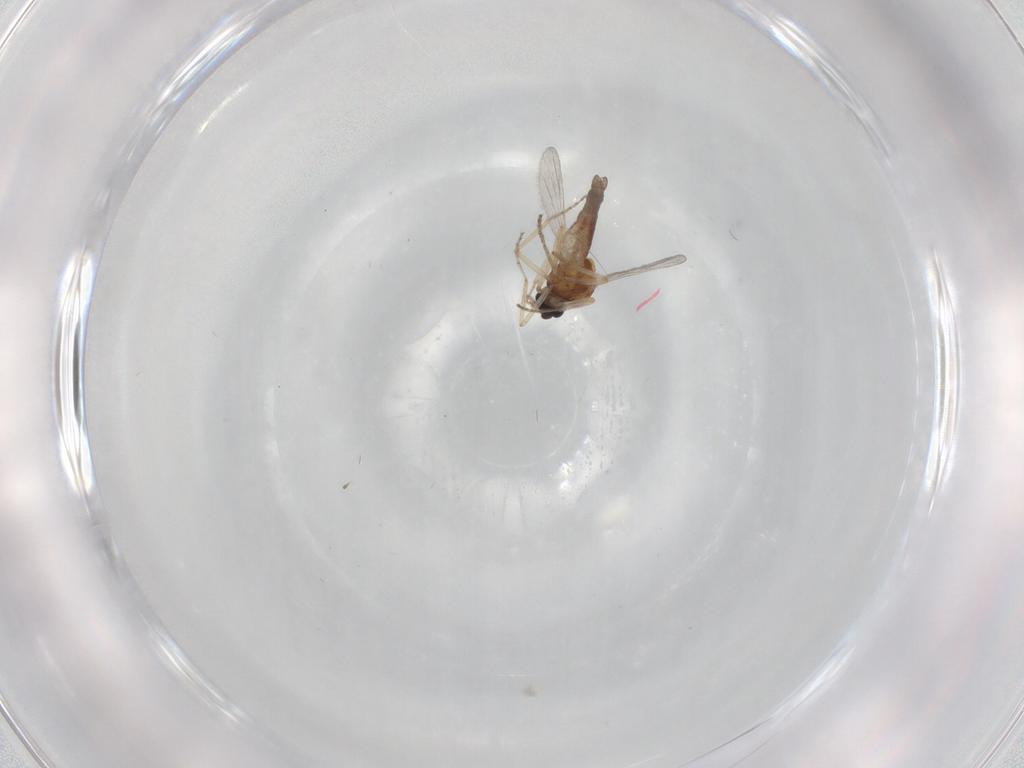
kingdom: Animalia
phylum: Arthropoda
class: Insecta
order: Diptera
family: Ceratopogonidae
